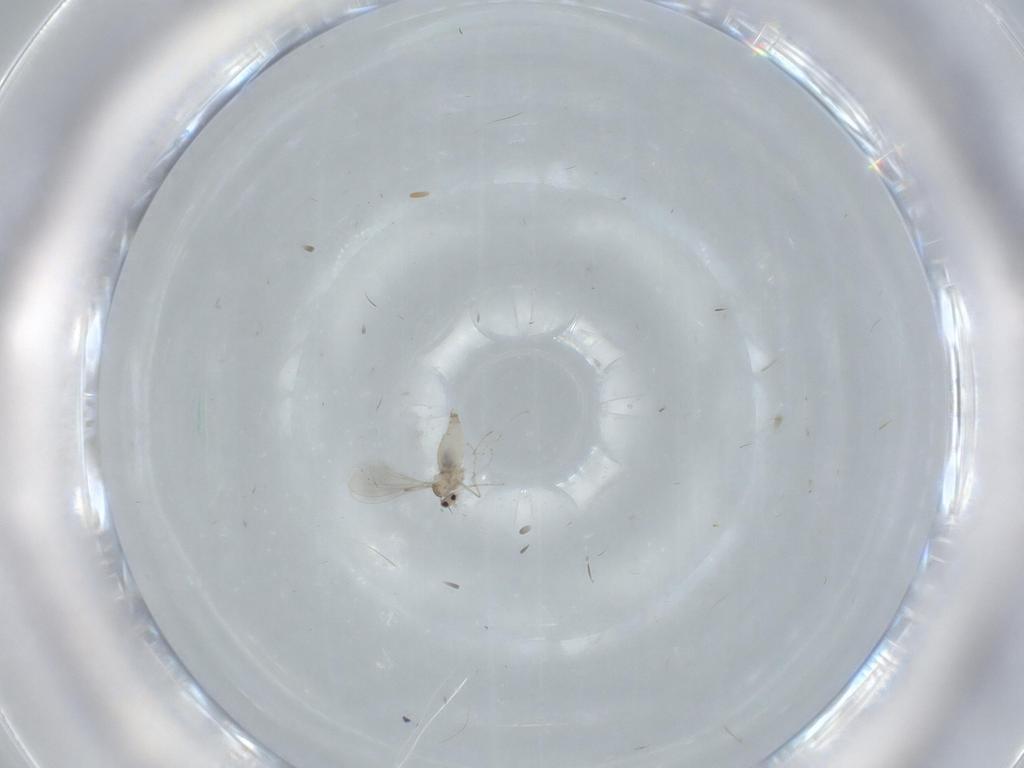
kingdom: Animalia
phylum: Arthropoda
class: Insecta
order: Diptera
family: Cecidomyiidae
